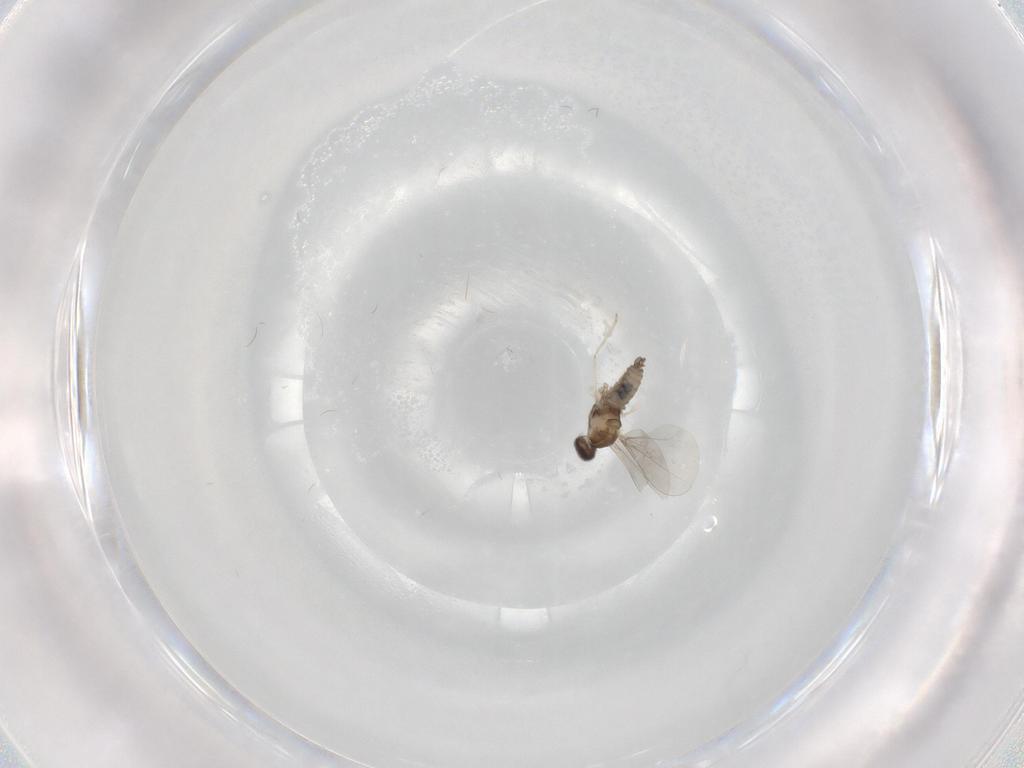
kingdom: Animalia
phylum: Arthropoda
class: Insecta
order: Diptera
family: Cecidomyiidae
